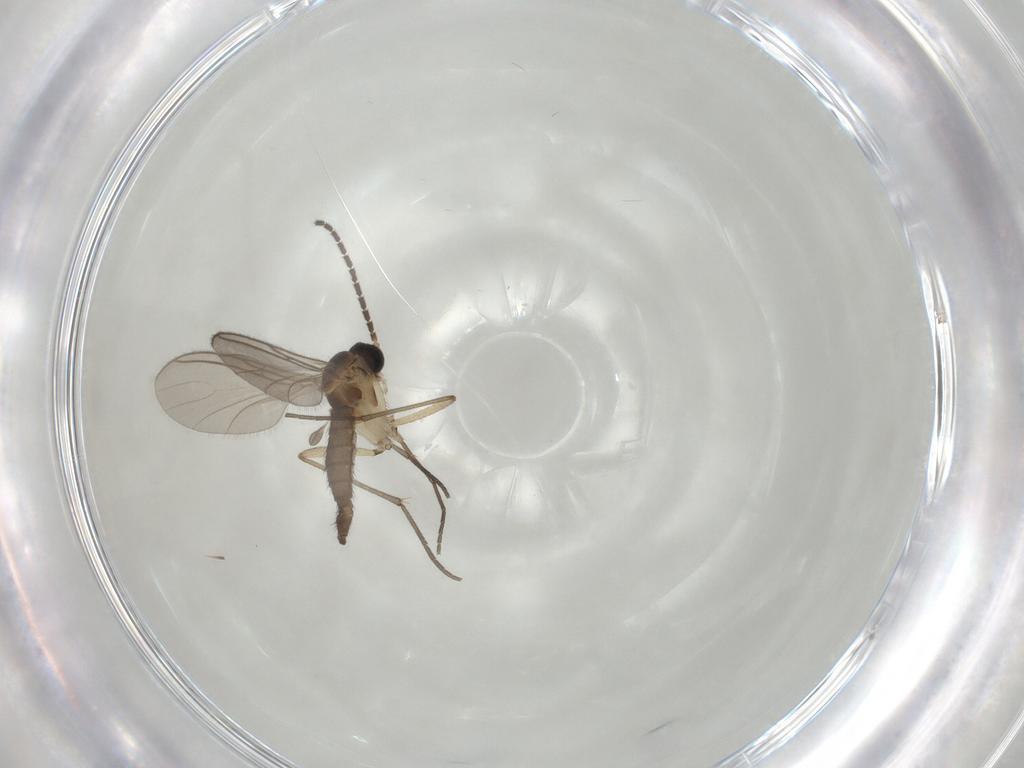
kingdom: Animalia
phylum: Arthropoda
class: Insecta
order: Diptera
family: Sciaridae
